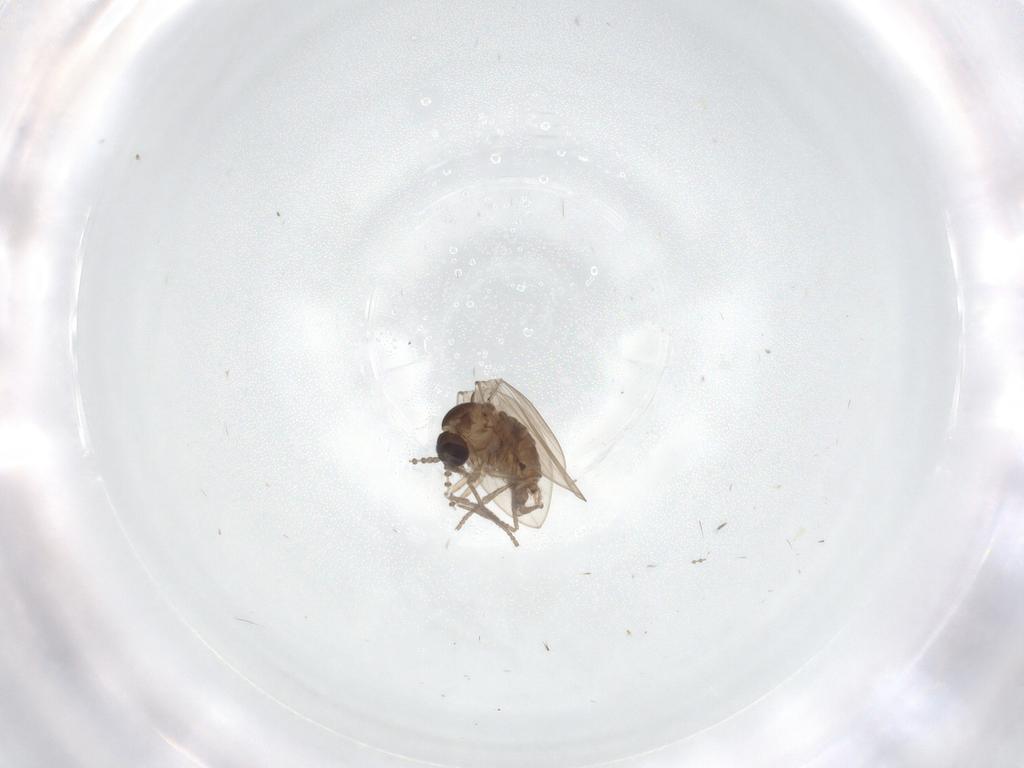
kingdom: Animalia
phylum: Arthropoda
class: Insecta
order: Diptera
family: Psychodidae
